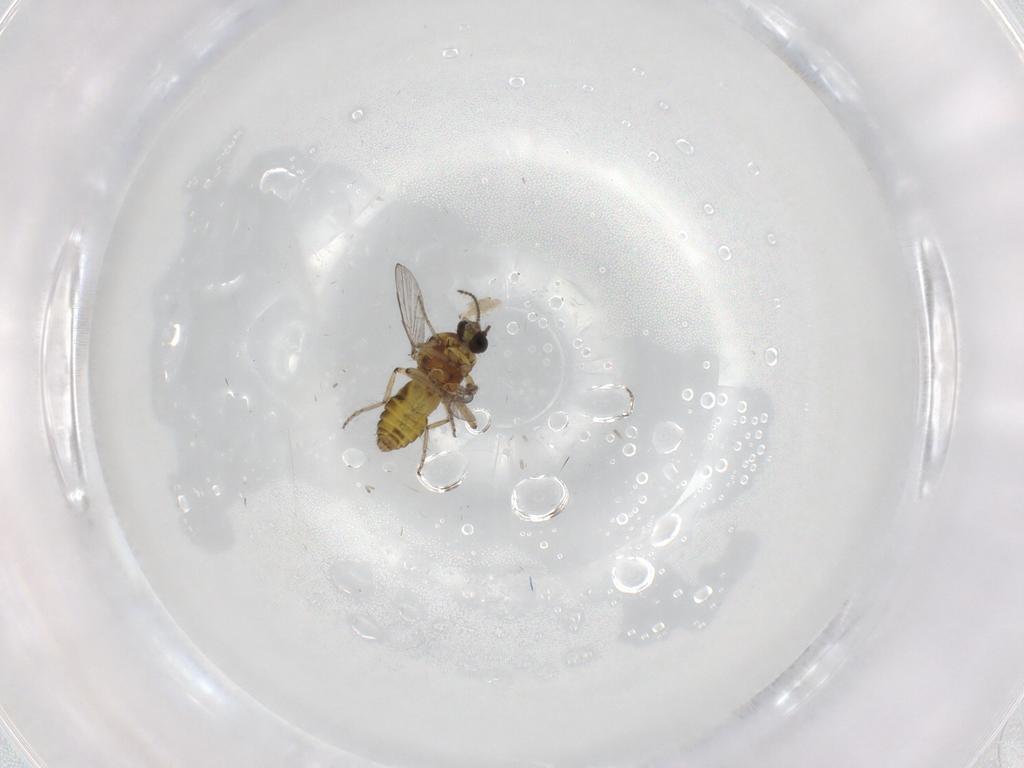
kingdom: Animalia
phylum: Arthropoda
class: Insecta
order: Diptera
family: Ceratopogonidae
